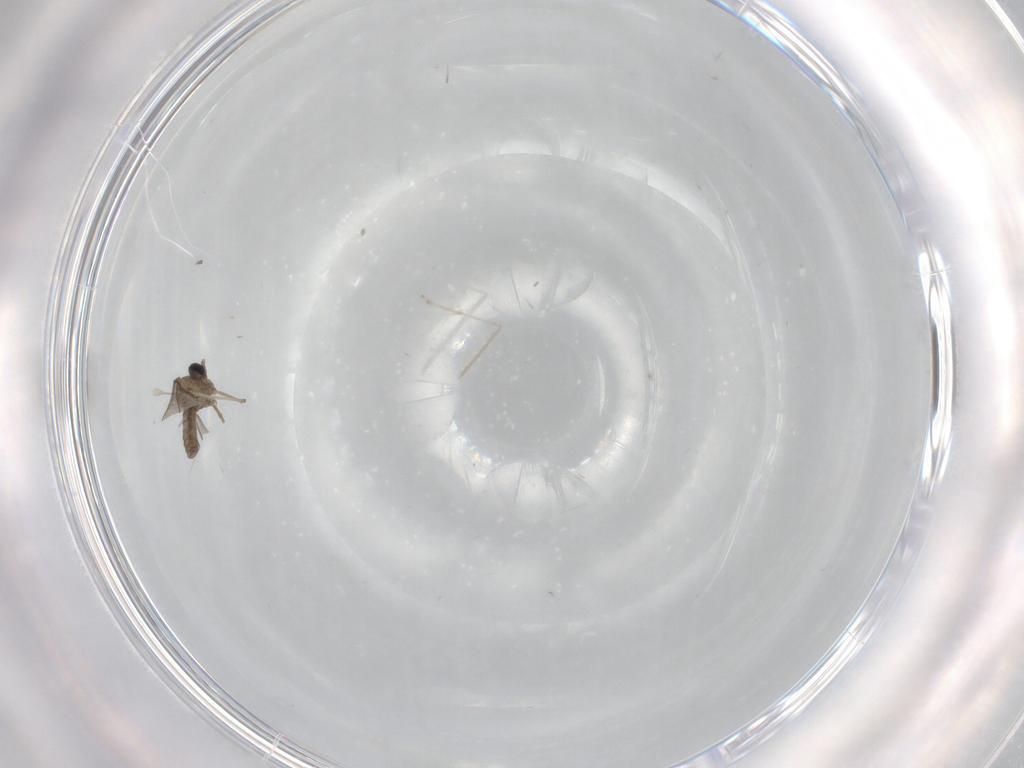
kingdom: Animalia
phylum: Arthropoda
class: Insecta
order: Diptera
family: Cecidomyiidae
